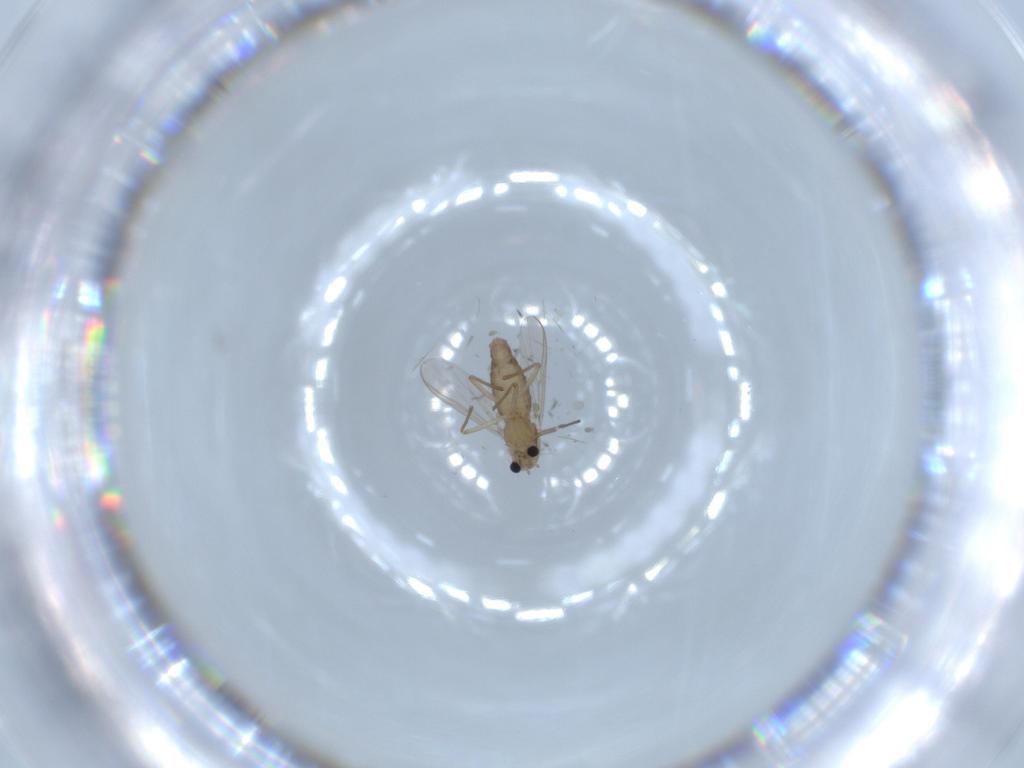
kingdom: Animalia
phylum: Arthropoda
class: Insecta
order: Diptera
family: Chironomidae
